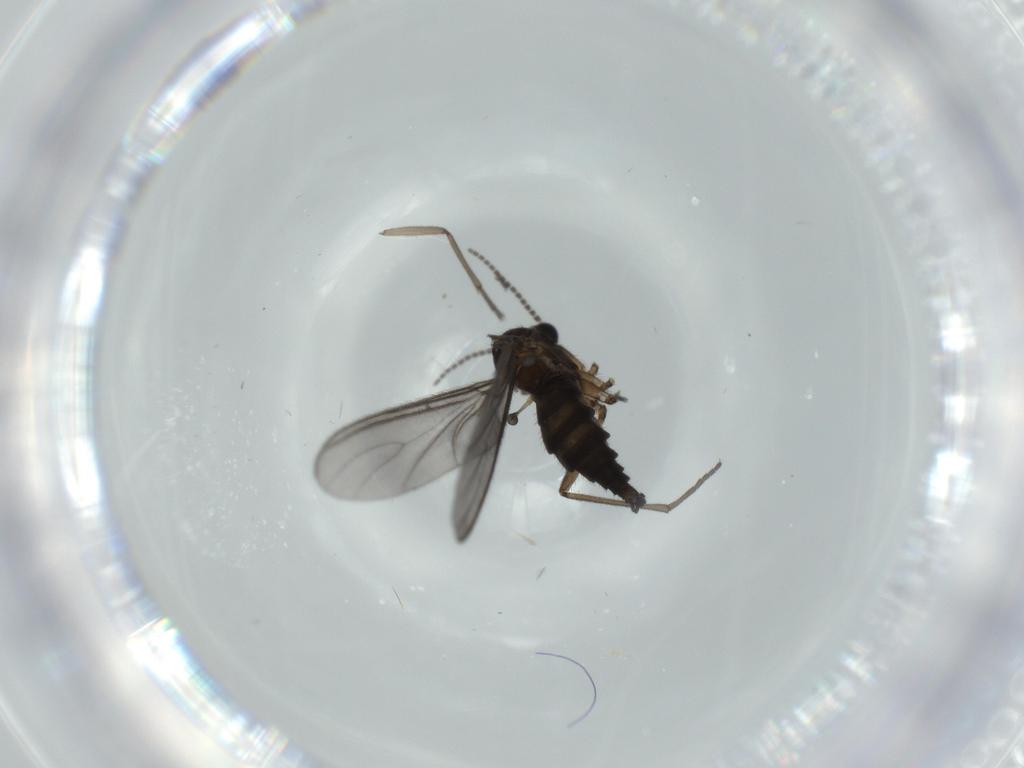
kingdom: Animalia
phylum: Arthropoda
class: Insecta
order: Diptera
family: Sciaridae
